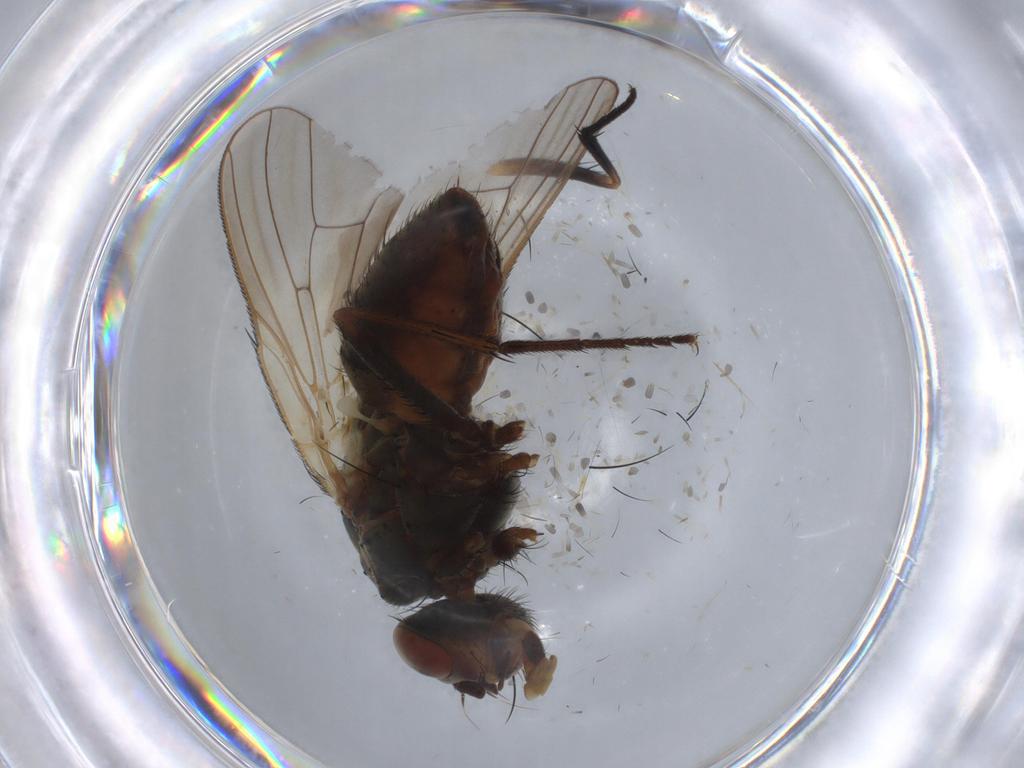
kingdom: Animalia
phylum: Arthropoda
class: Insecta
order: Diptera
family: Anthomyiidae
